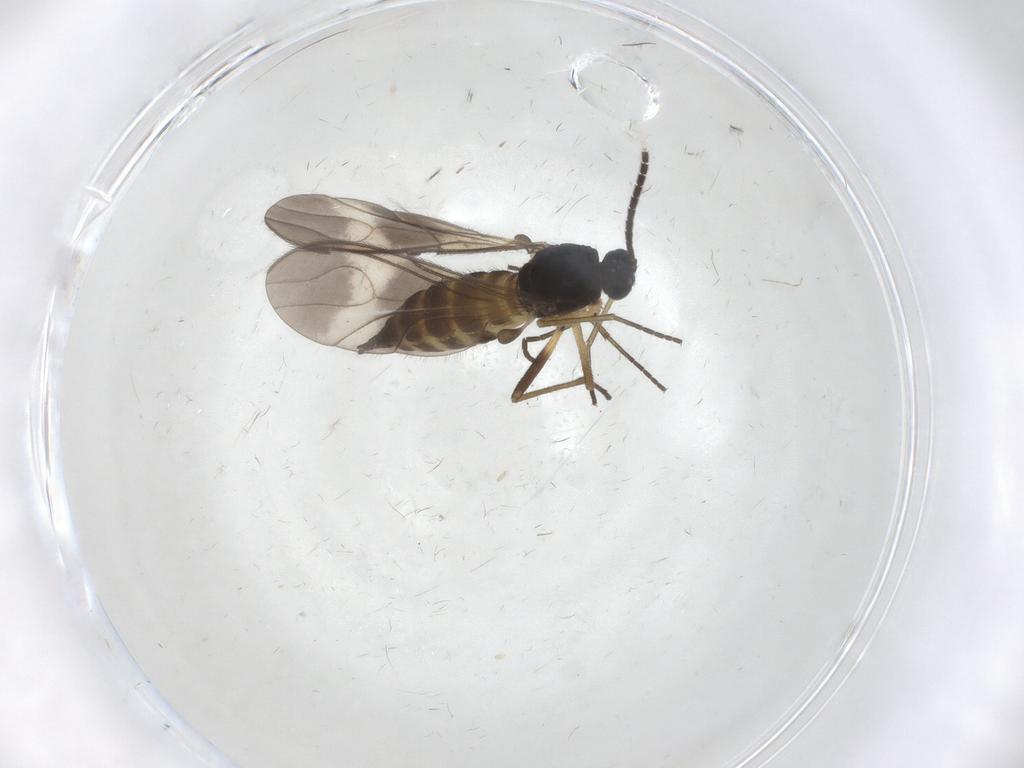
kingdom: Animalia
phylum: Arthropoda
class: Insecta
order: Diptera
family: Sciaridae
